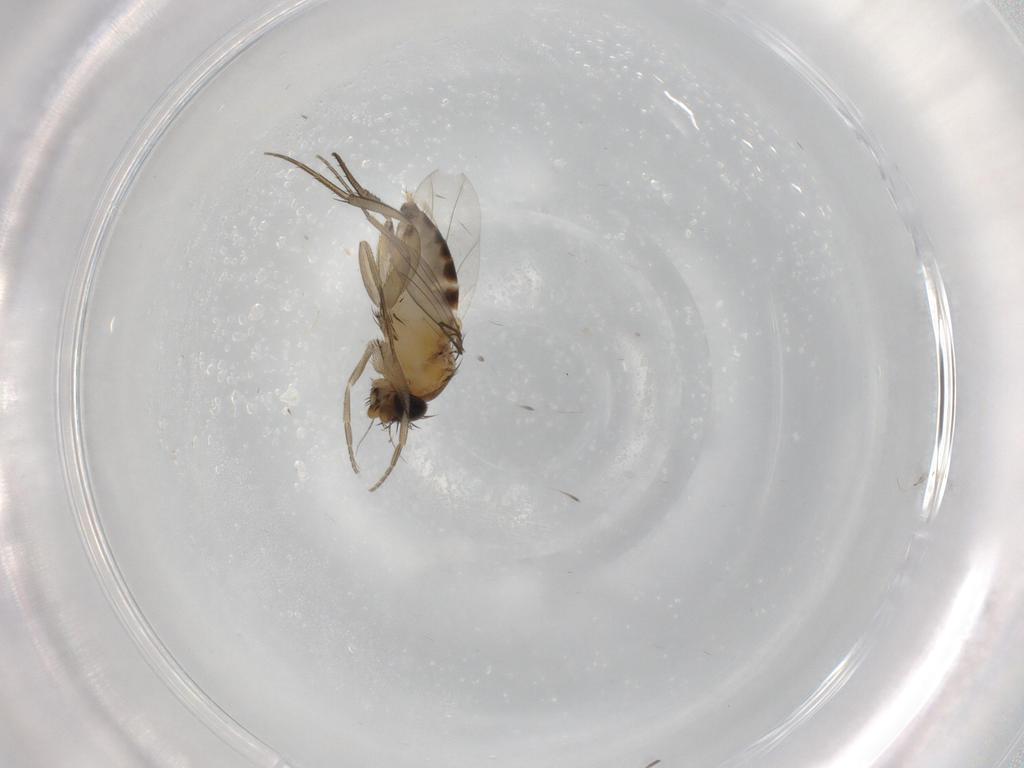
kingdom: Animalia
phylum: Arthropoda
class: Insecta
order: Diptera
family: Phoridae
